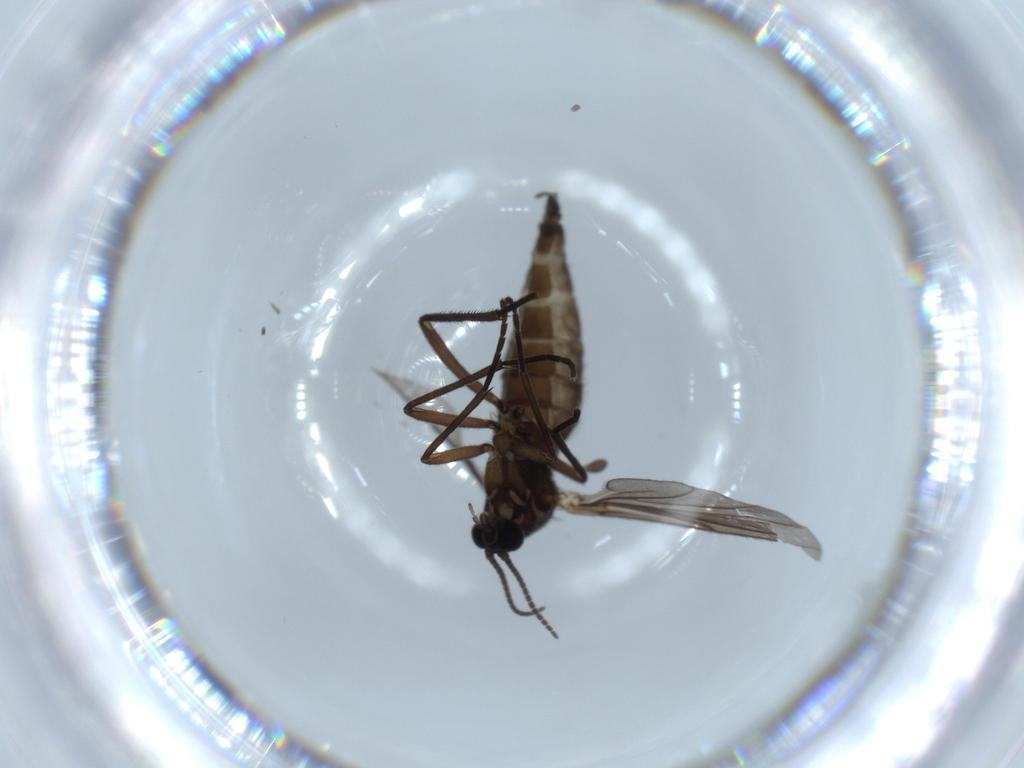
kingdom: Animalia
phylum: Arthropoda
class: Insecta
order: Diptera
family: Sciaridae
